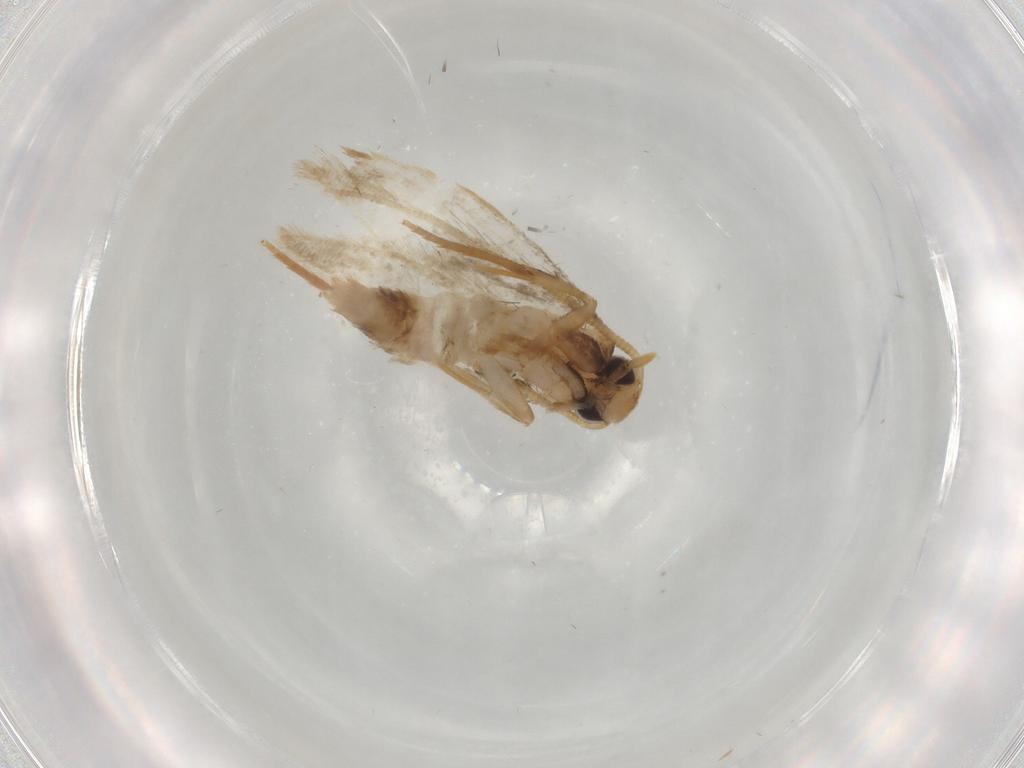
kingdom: Animalia
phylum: Arthropoda
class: Insecta
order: Lepidoptera
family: Cosmopterigidae
